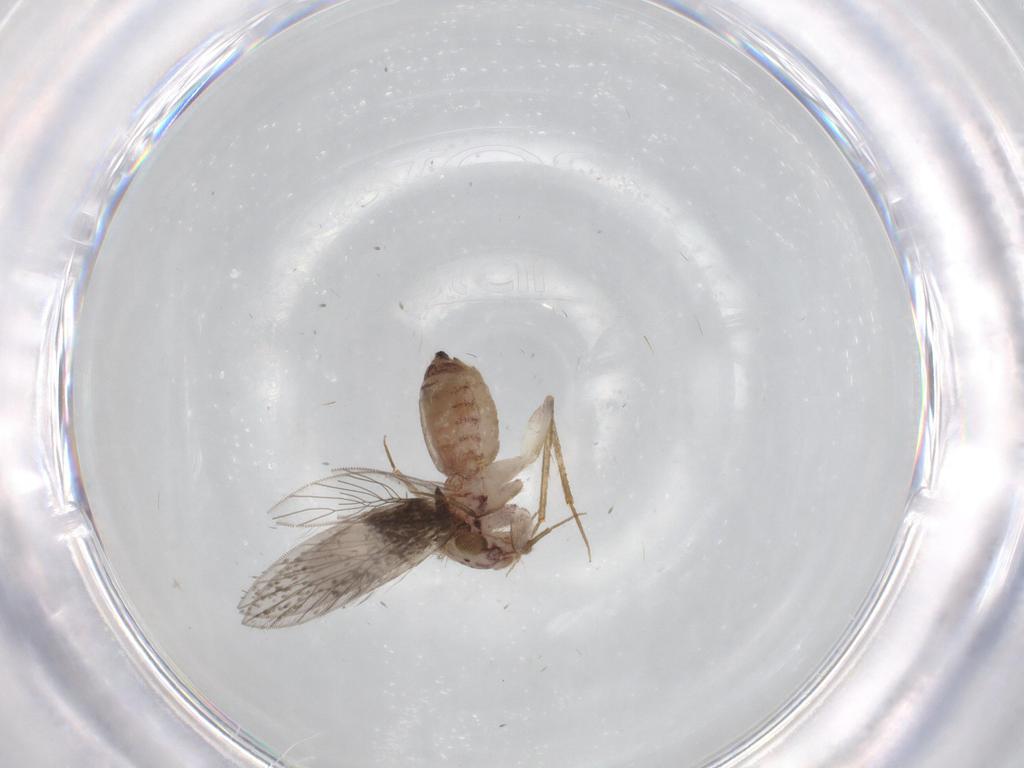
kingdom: Animalia
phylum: Arthropoda
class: Insecta
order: Psocodea
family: Lepidopsocidae
